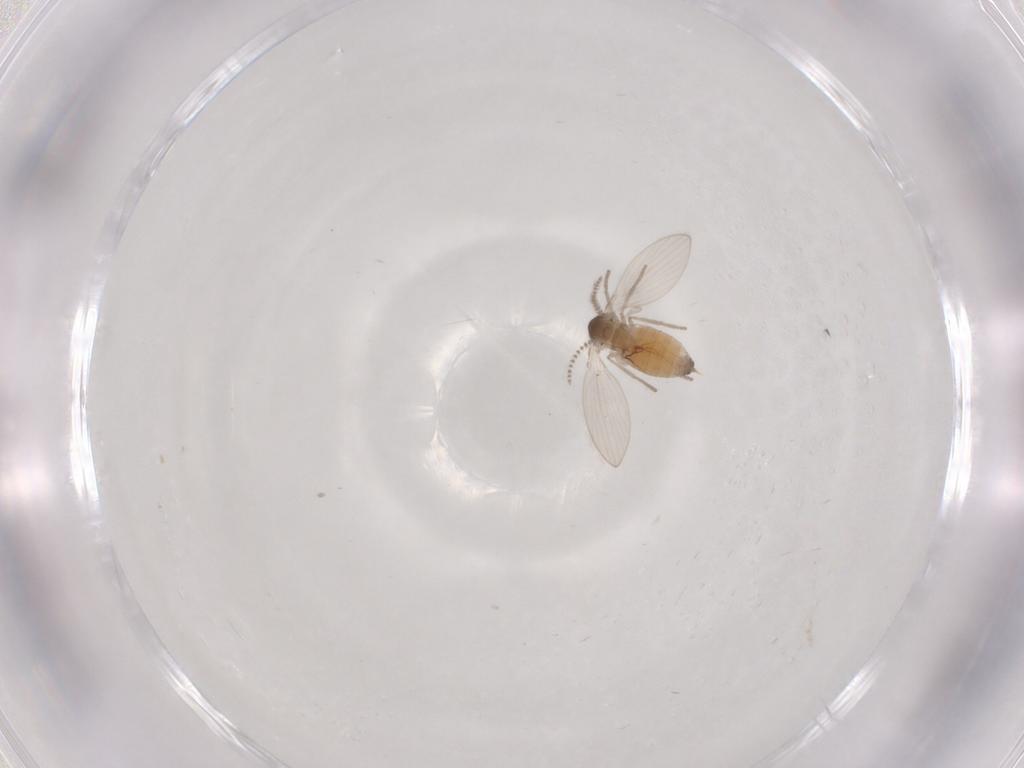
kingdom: Animalia
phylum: Arthropoda
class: Insecta
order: Diptera
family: Psychodidae
